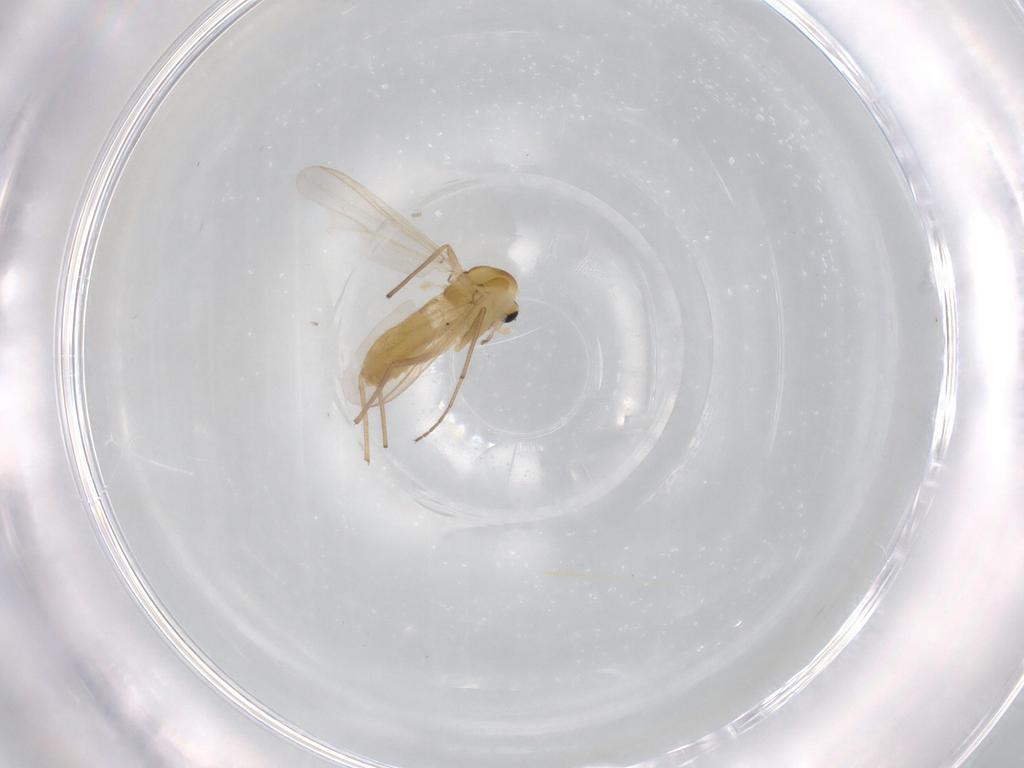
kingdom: Animalia
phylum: Arthropoda
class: Insecta
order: Diptera
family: Chironomidae
